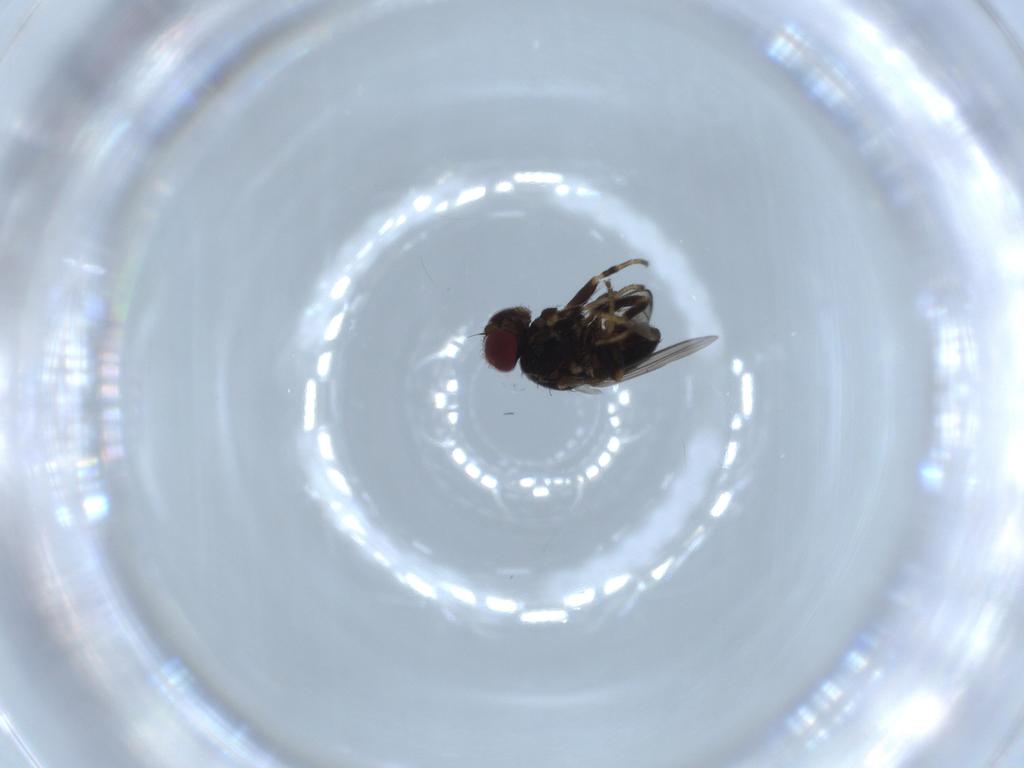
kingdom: Animalia
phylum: Arthropoda
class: Insecta
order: Diptera
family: Chloropidae
